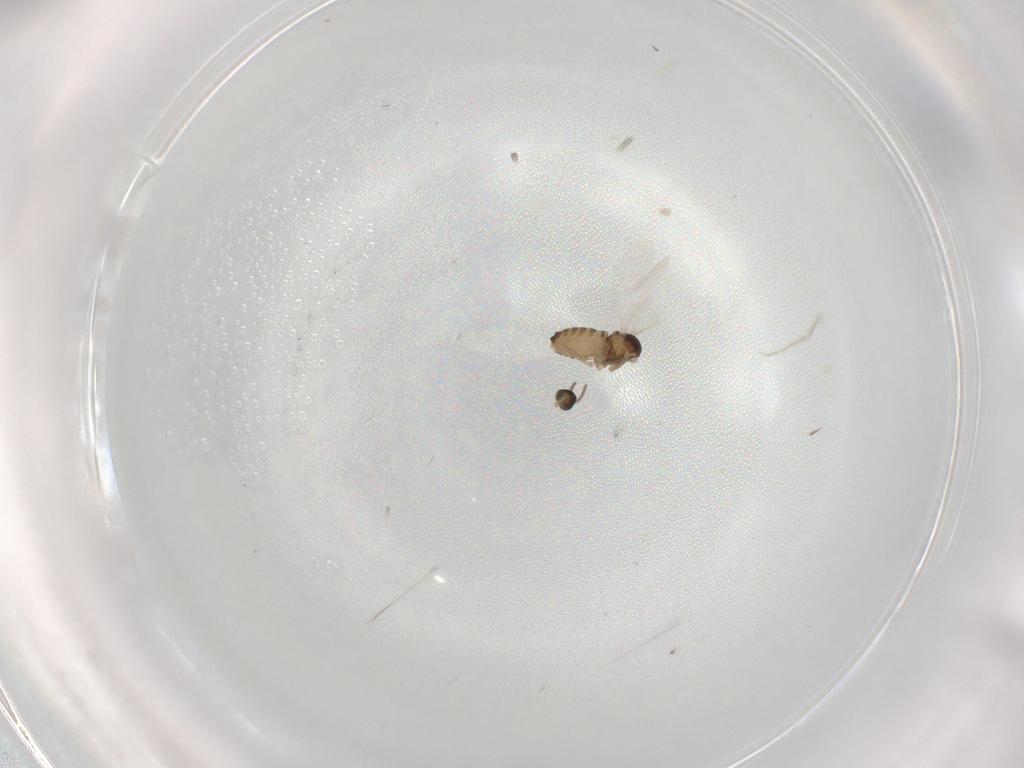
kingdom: Animalia
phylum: Arthropoda
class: Insecta
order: Diptera
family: Cecidomyiidae
